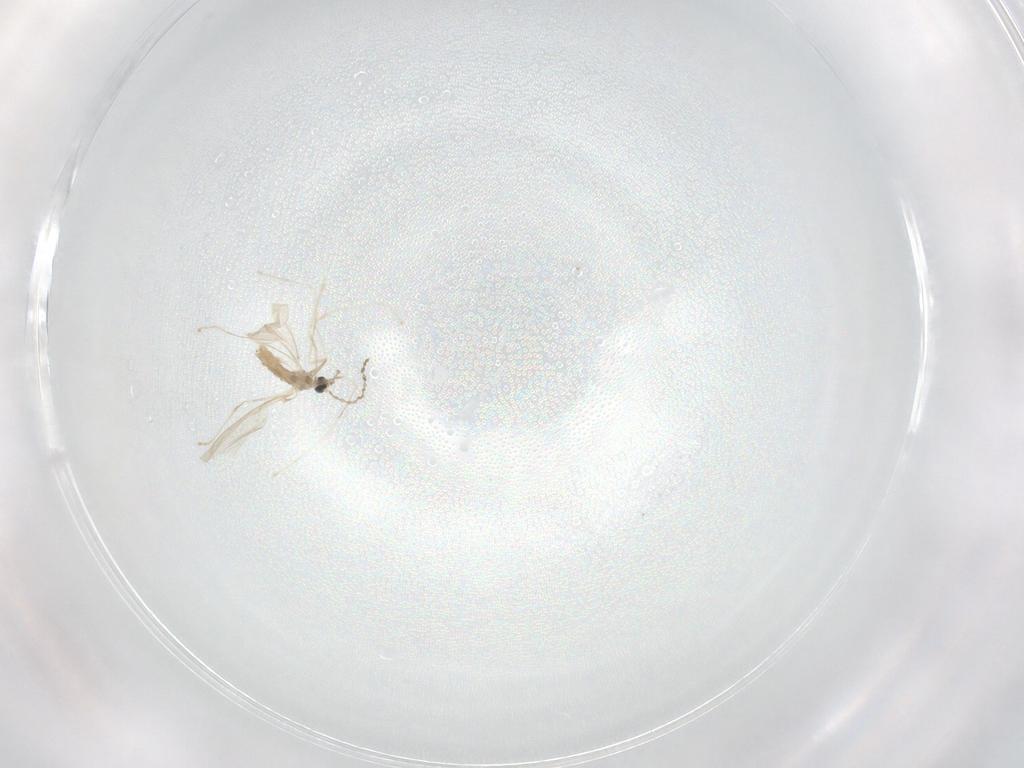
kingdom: Animalia
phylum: Arthropoda
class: Insecta
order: Diptera
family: Cecidomyiidae
